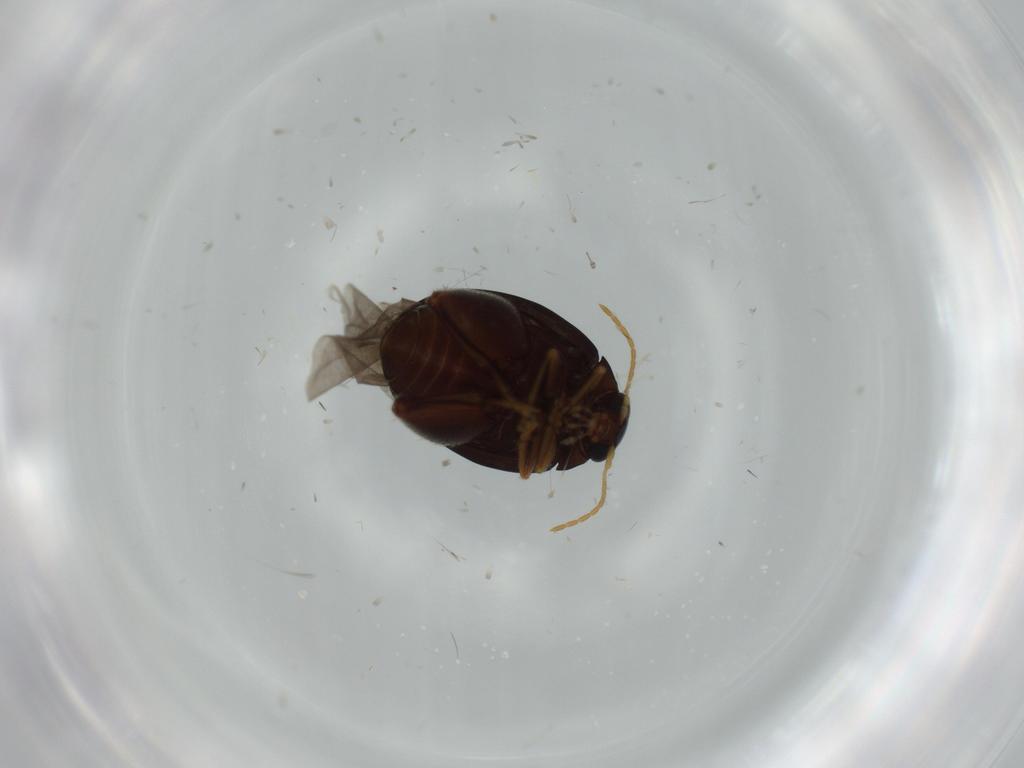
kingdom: Animalia
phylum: Arthropoda
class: Insecta
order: Coleoptera
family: Chrysomelidae
